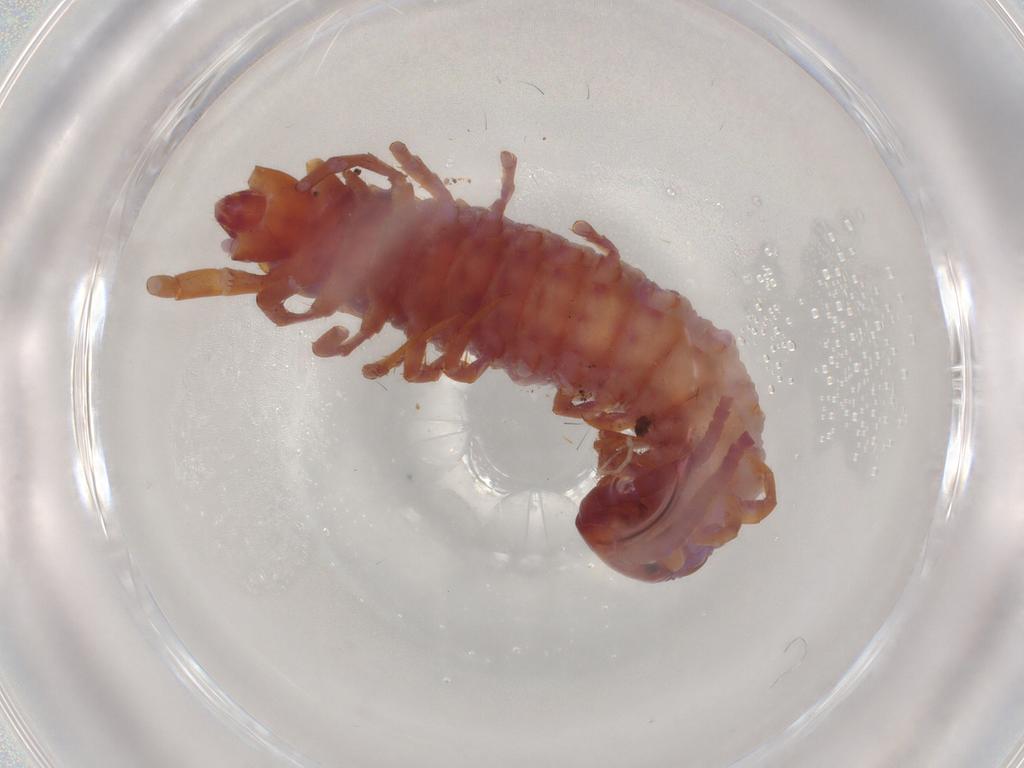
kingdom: Animalia
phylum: Arthropoda
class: Chilopoda
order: Lithobiomorpha
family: Lithobiidae
